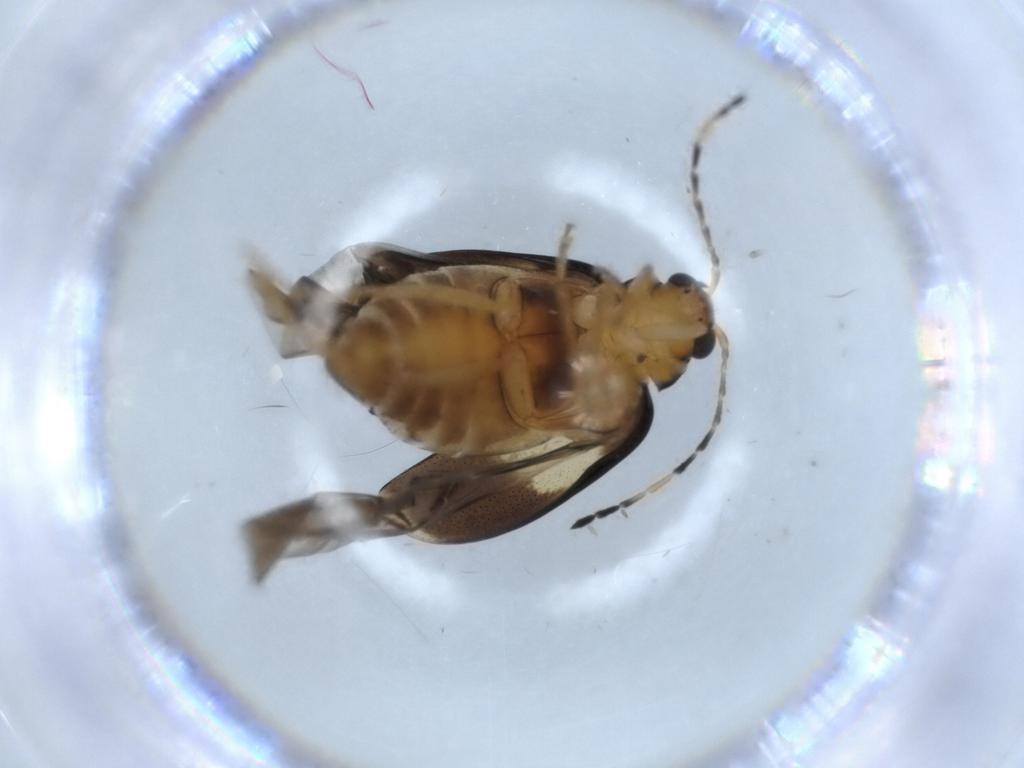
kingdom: Animalia
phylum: Arthropoda
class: Insecta
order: Coleoptera
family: Chrysomelidae
